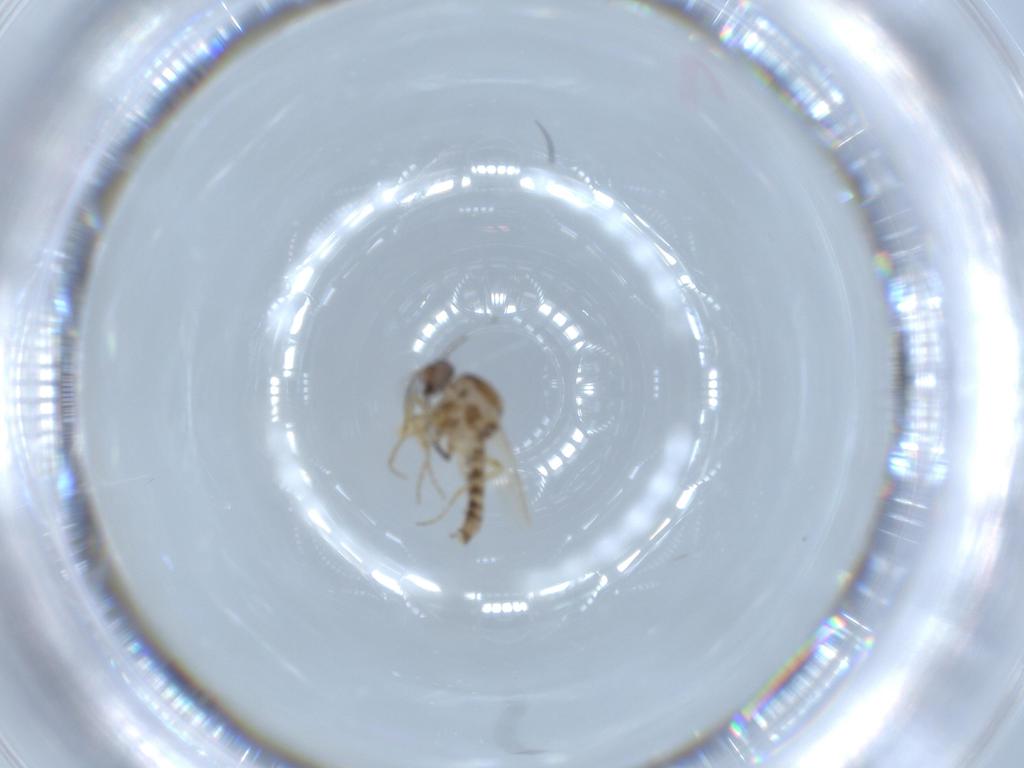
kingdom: Animalia
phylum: Arthropoda
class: Insecta
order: Diptera
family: Ceratopogonidae
